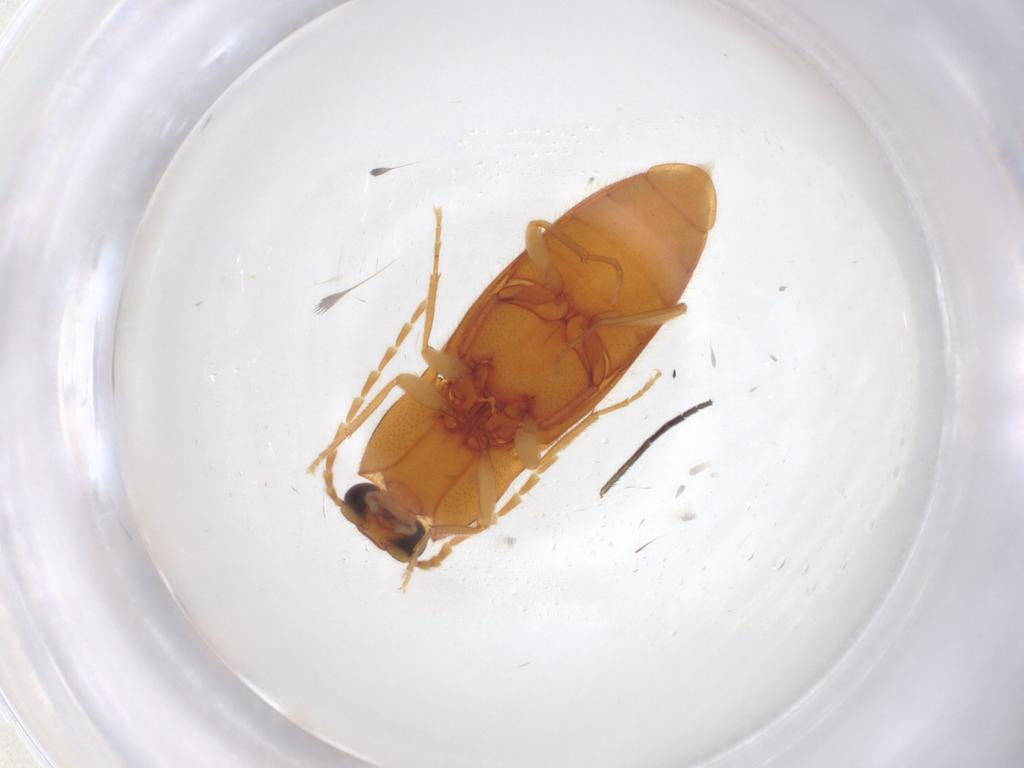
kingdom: Animalia
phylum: Arthropoda
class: Insecta
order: Coleoptera
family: Elateridae
